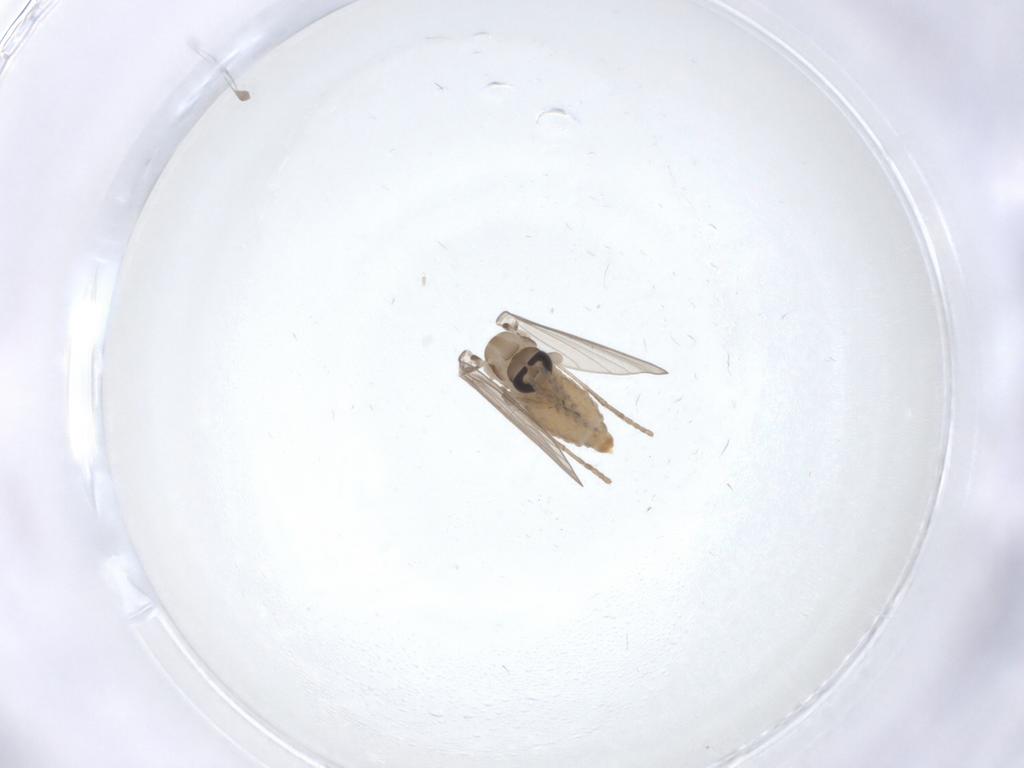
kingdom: Animalia
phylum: Arthropoda
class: Insecta
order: Diptera
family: Psychodidae
